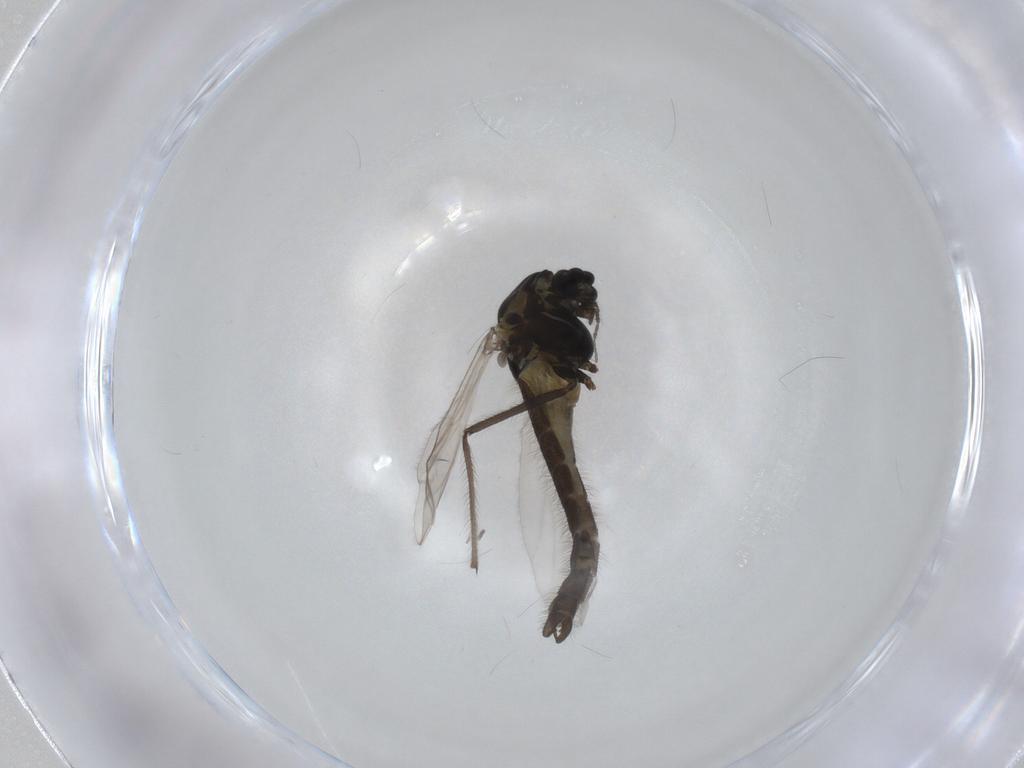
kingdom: Animalia
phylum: Arthropoda
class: Insecta
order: Diptera
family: Chironomidae
